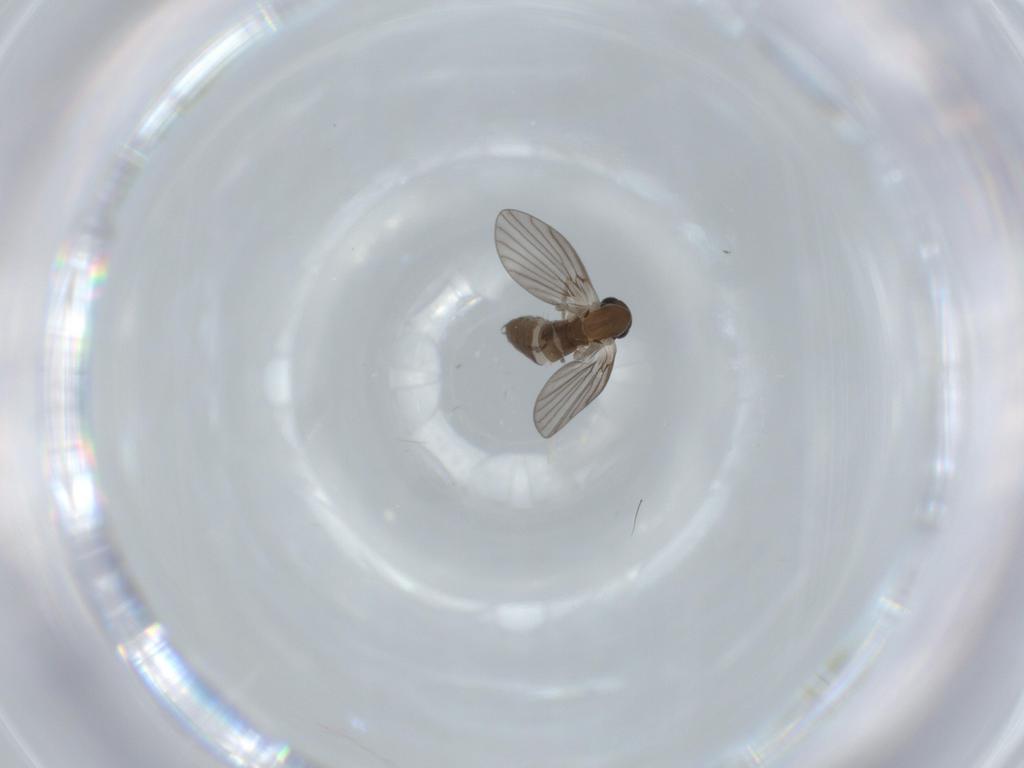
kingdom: Animalia
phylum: Arthropoda
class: Insecta
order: Diptera
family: Psychodidae
